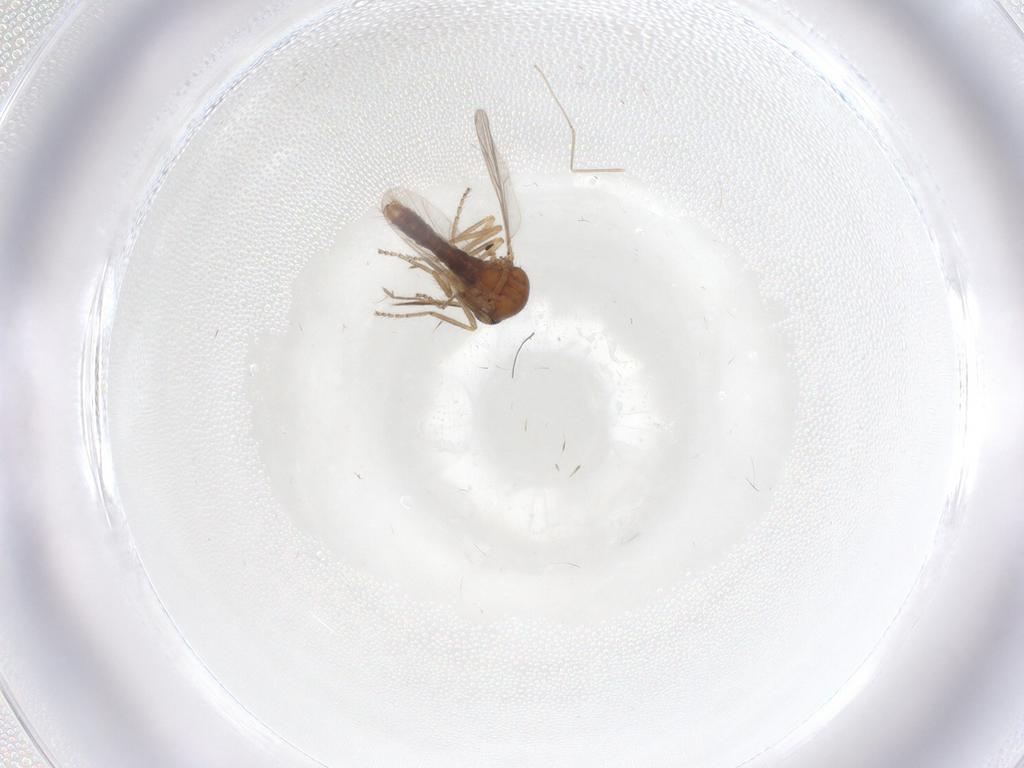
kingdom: Animalia
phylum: Arthropoda
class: Insecta
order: Diptera
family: Ceratopogonidae
